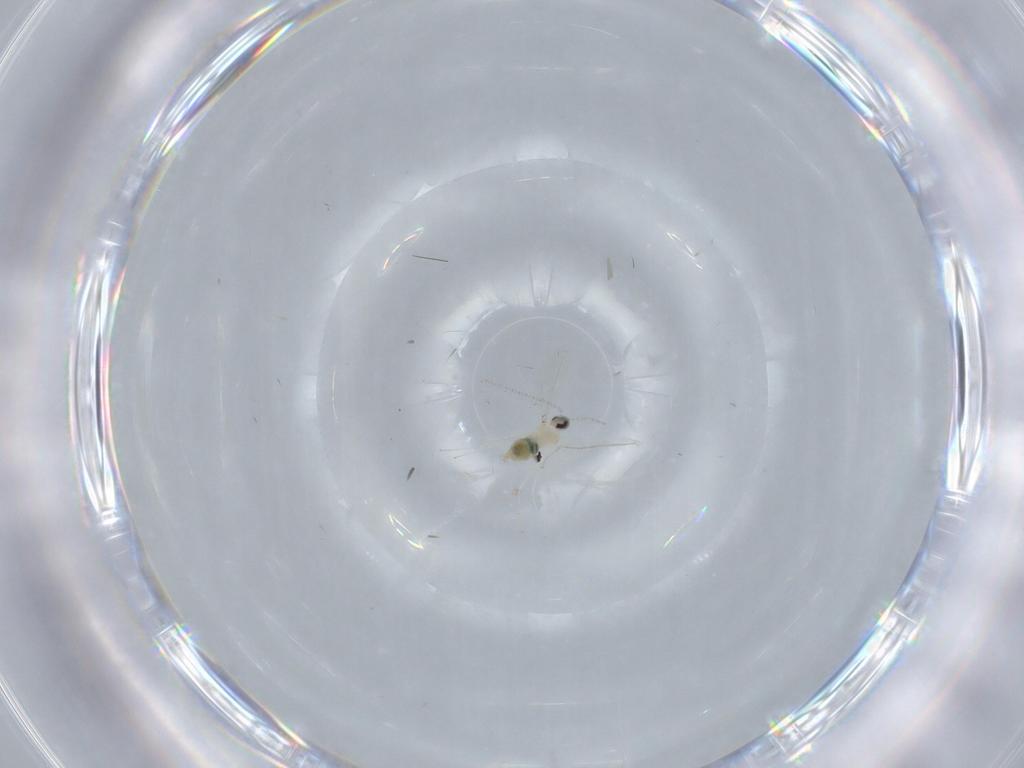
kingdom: Animalia
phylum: Arthropoda
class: Insecta
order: Diptera
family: Cecidomyiidae
